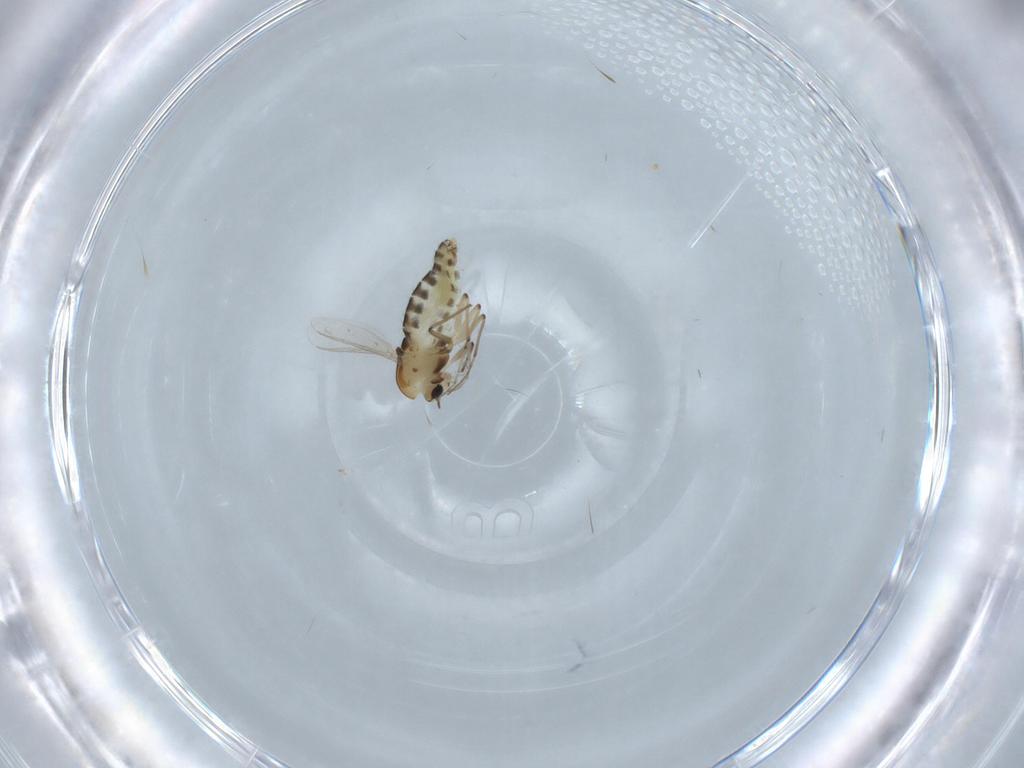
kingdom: Animalia
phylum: Arthropoda
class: Insecta
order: Diptera
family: Chironomidae
